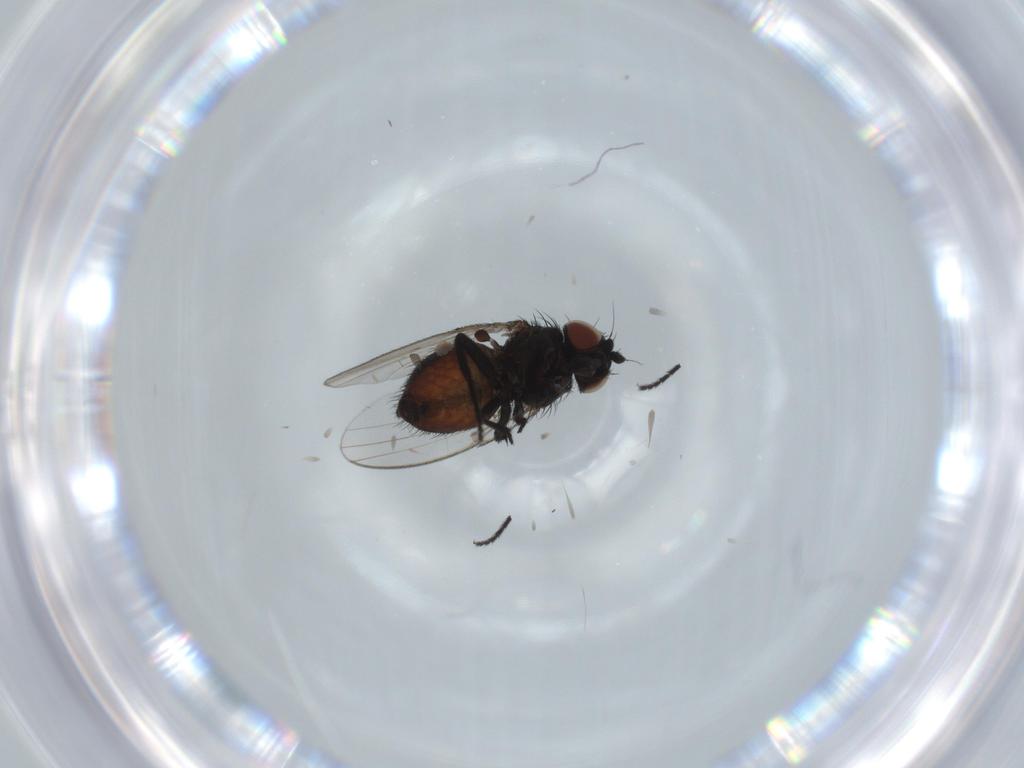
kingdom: Animalia
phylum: Arthropoda
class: Insecta
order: Diptera
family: Milichiidae
